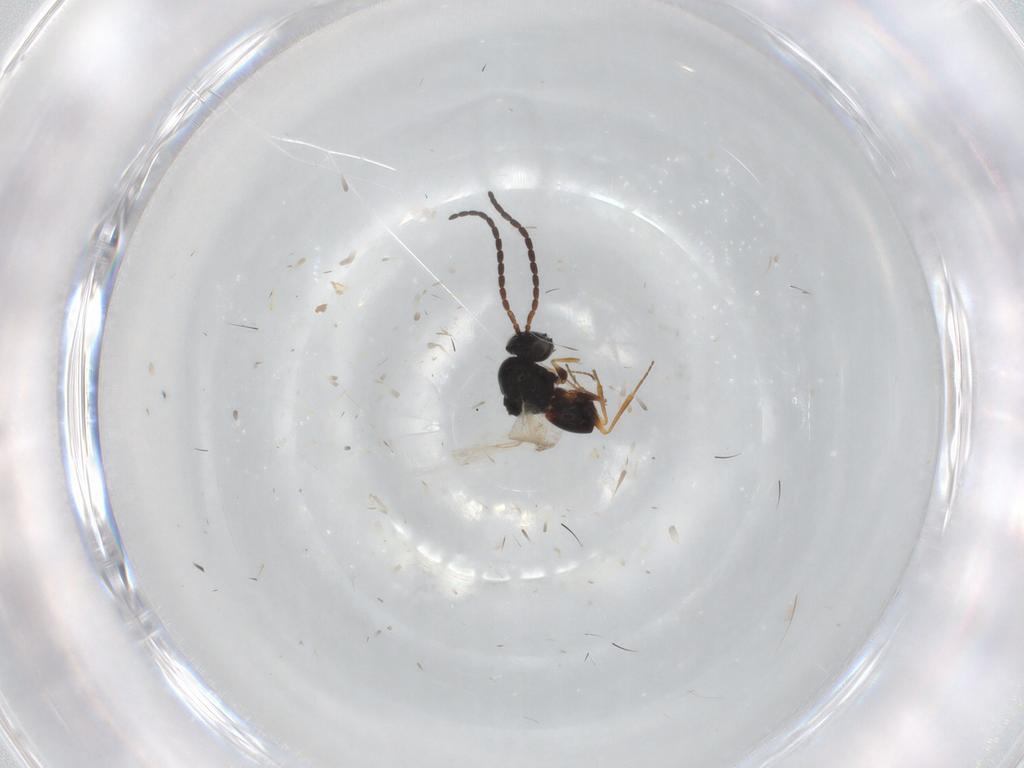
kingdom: Animalia
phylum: Arthropoda
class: Insecta
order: Hymenoptera
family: Figitidae
